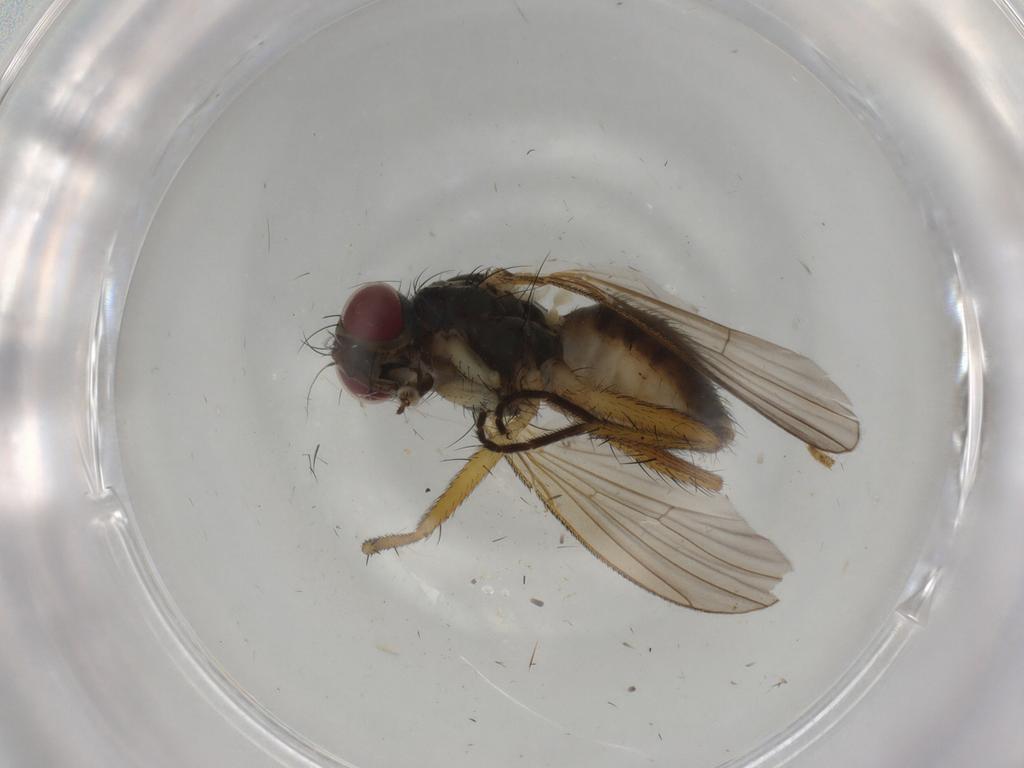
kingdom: Animalia
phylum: Arthropoda
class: Insecta
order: Diptera
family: Muscidae
